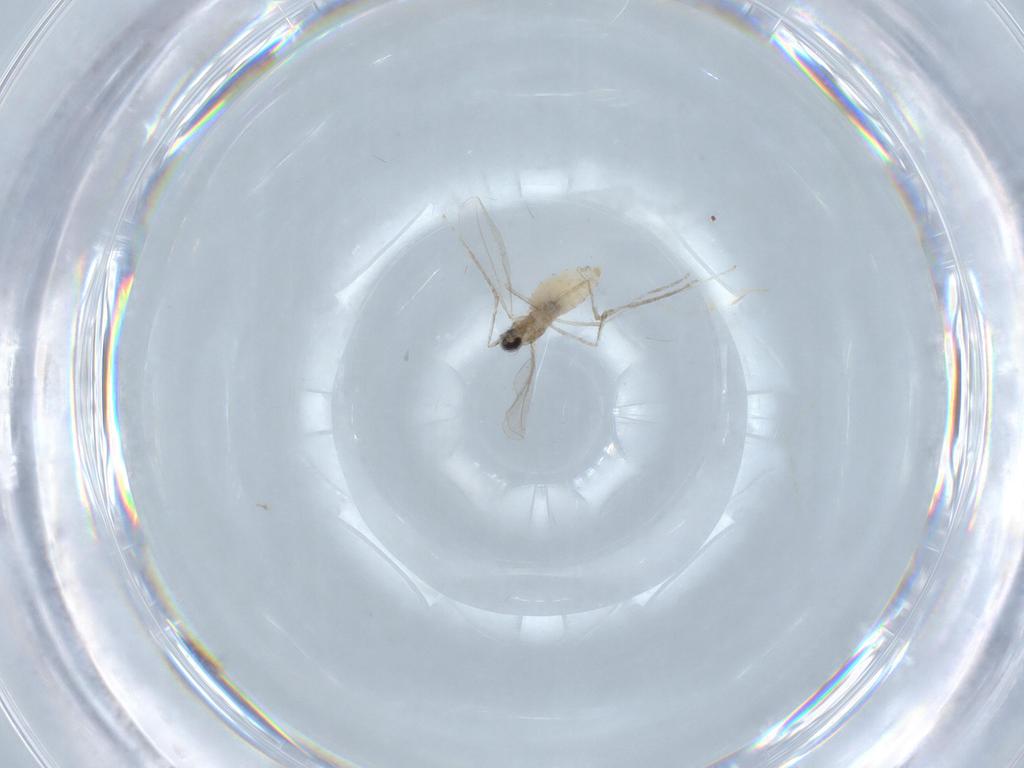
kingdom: Animalia
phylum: Arthropoda
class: Insecta
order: Diptera
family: Cecidomyiidae
